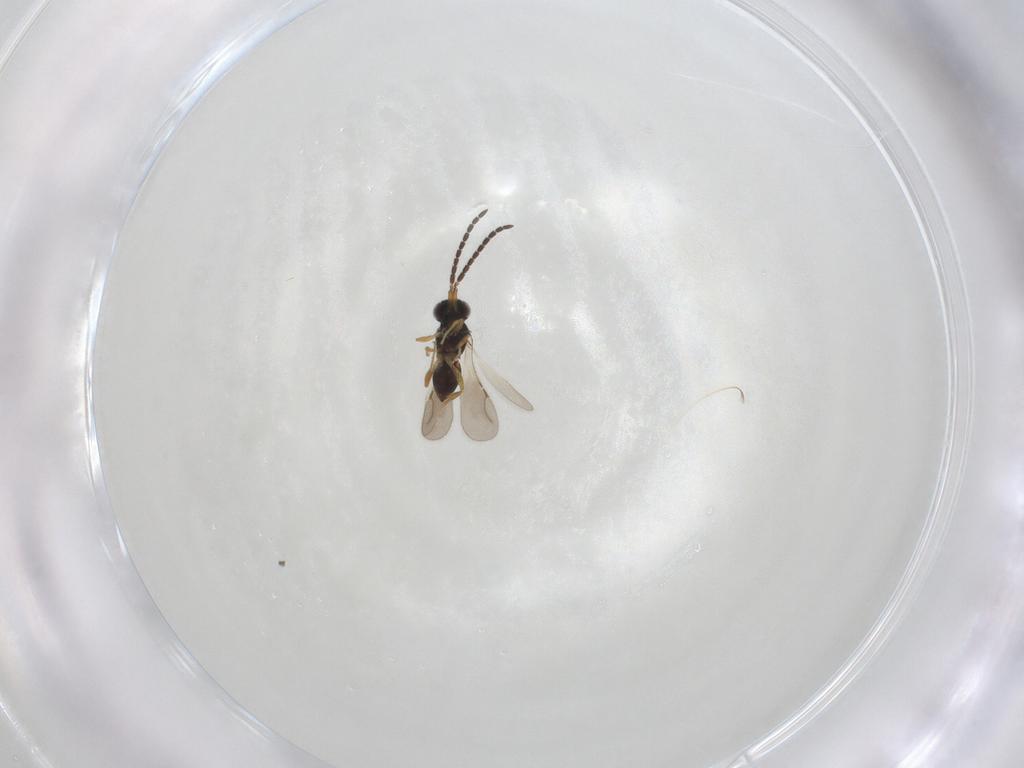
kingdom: Animalia
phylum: Arthropoda
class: Insecta
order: Hymenoptera
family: Ceraphronidae
